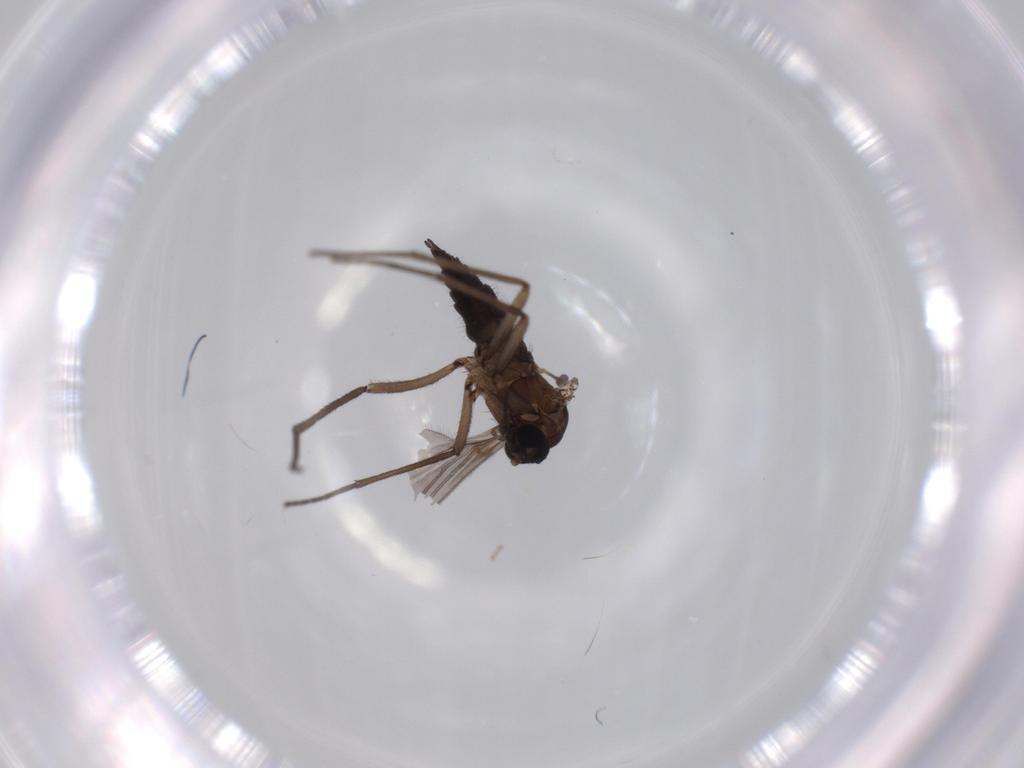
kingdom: Animalia
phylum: Arthropoda
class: Insecta
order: Diptera
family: Sciaridae
